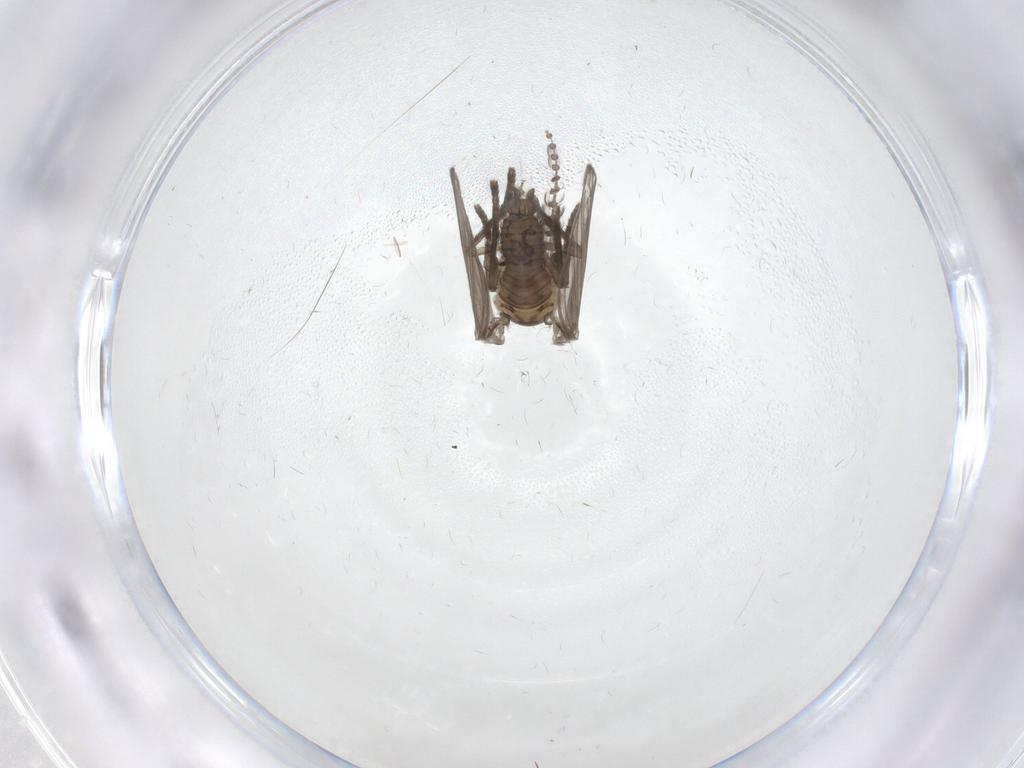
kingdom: Animalia
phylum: Arthropoda
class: Insecta
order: Diptera
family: Psychodidae
